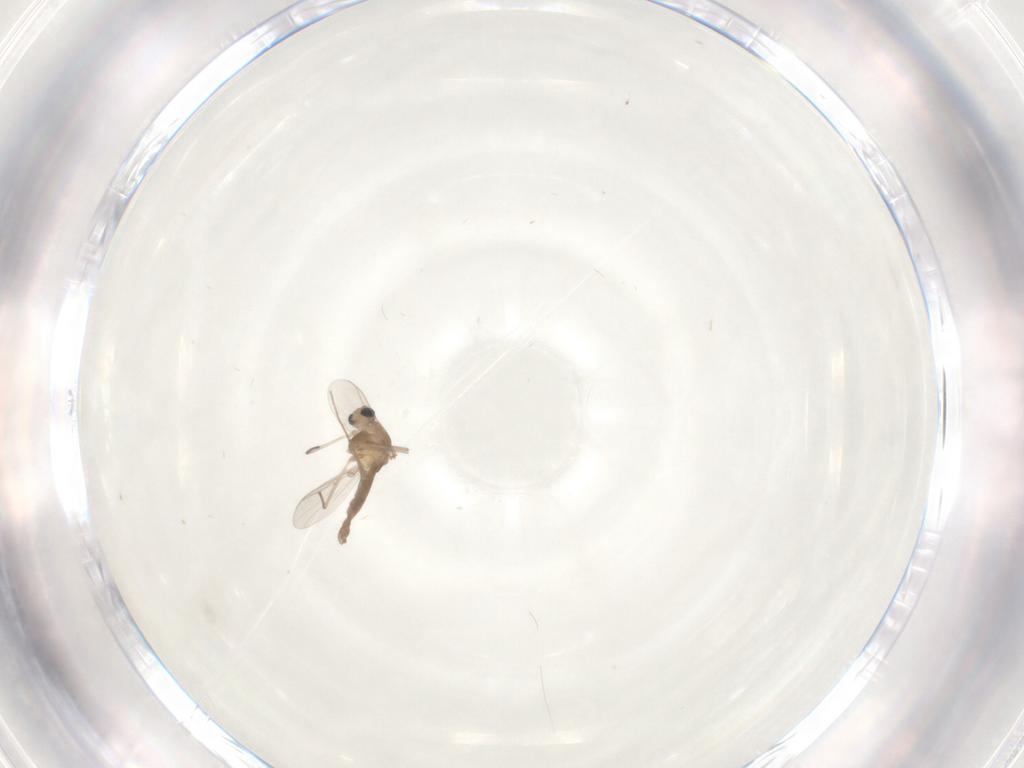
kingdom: Animalia
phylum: Arthropoda
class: Insecta
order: Diptera
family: Chironomidae
